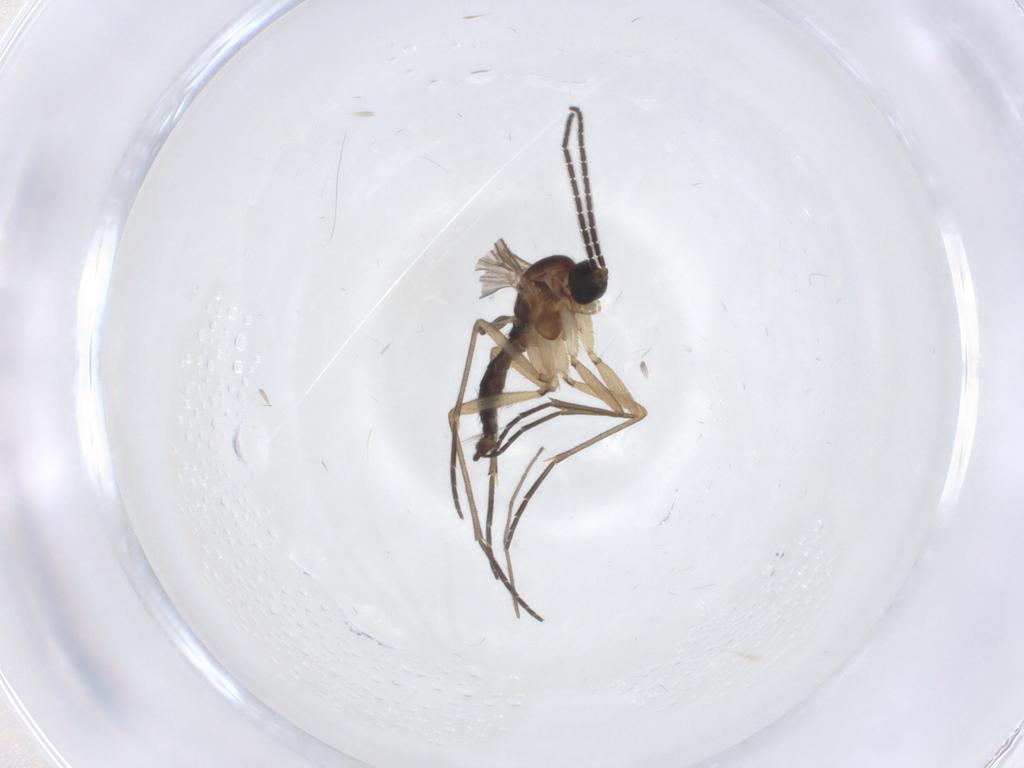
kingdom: Animalia
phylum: Arthropoda
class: Insecta
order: Diptera
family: Sciaridae
